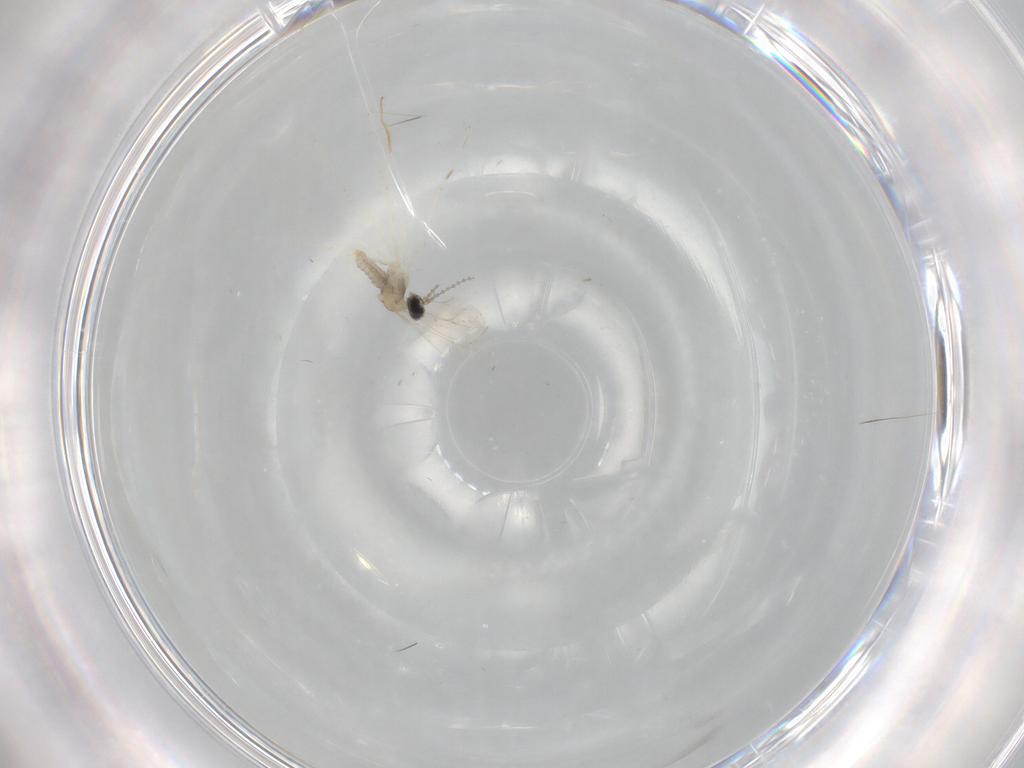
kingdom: Animalia
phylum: Arthropoda
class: Insecta
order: Diptera
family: Cecidomyiidae
